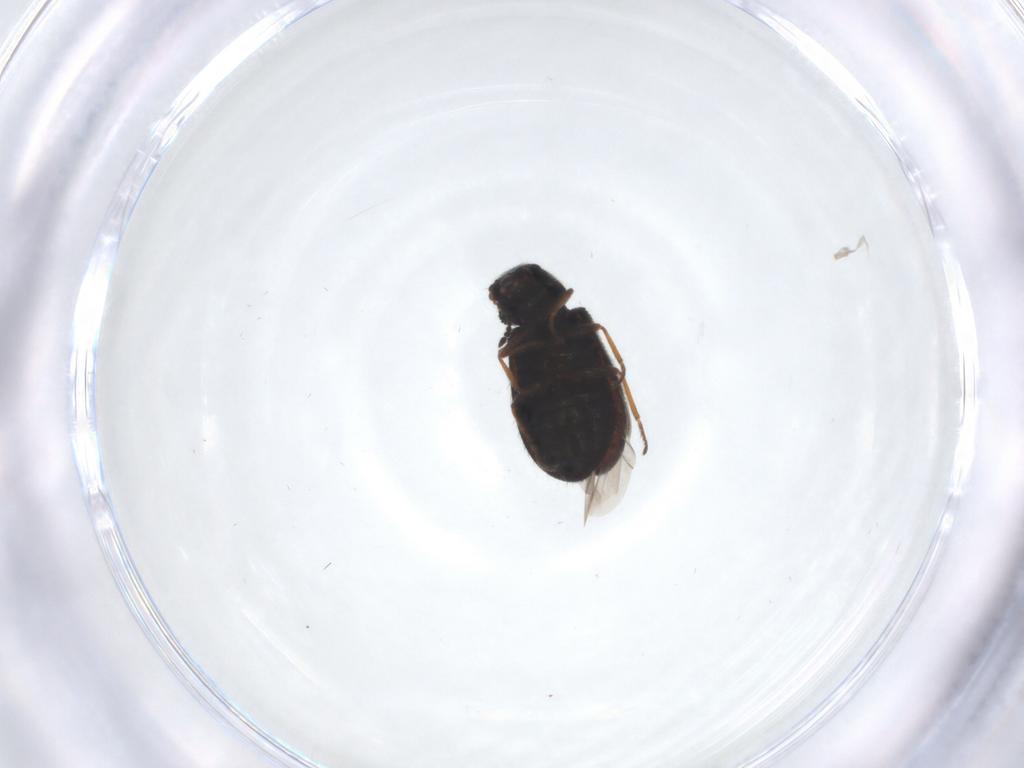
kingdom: Animalia
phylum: Arthropoda
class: Insecta
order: Coleoptera
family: Melyridae
